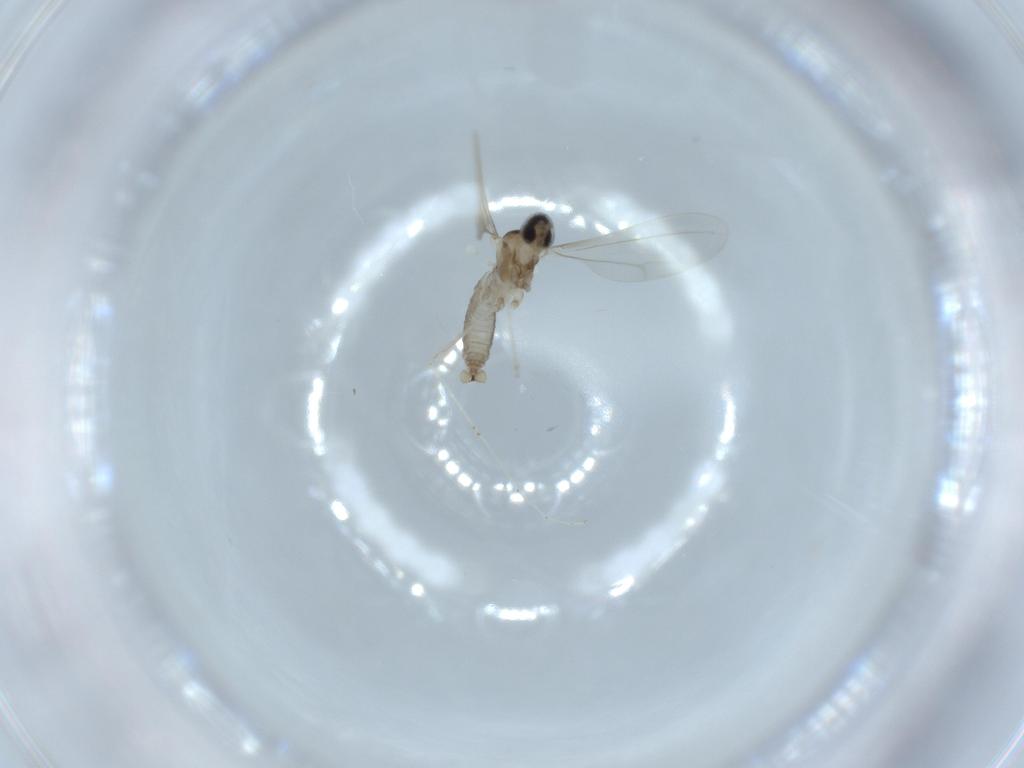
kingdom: Animalia
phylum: Arthropoda
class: Insecta
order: Diptera
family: Cecidomyiidae
